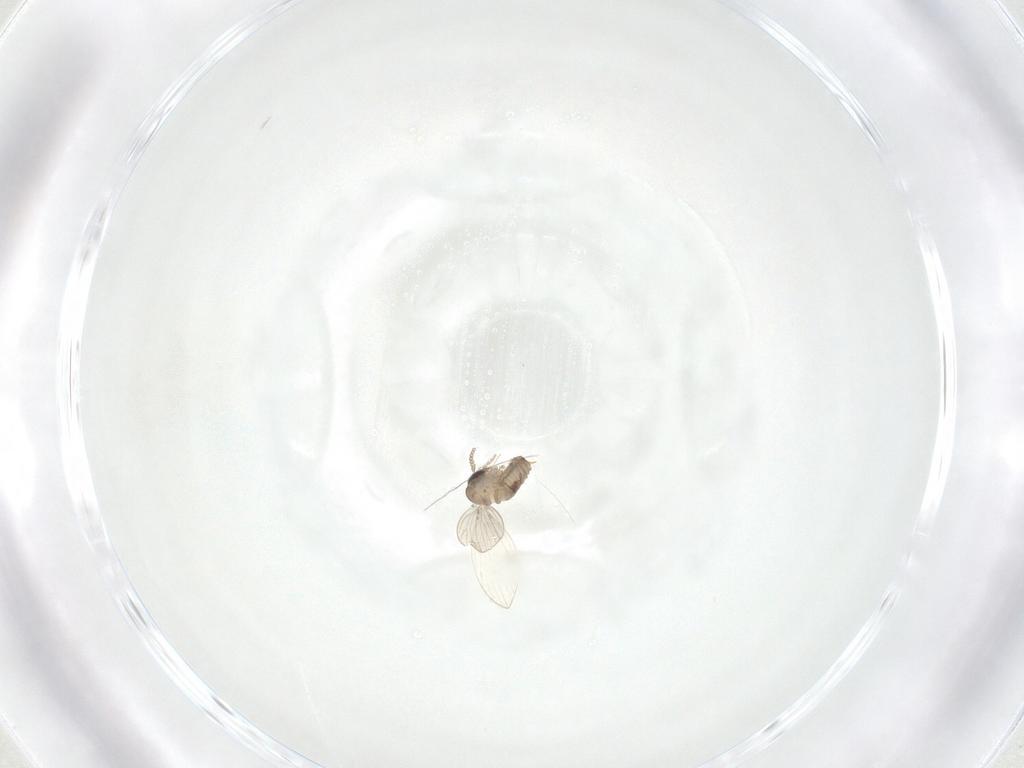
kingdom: Animalia
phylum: Arthropoda
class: Insecta
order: Diptera
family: Psychodidae
